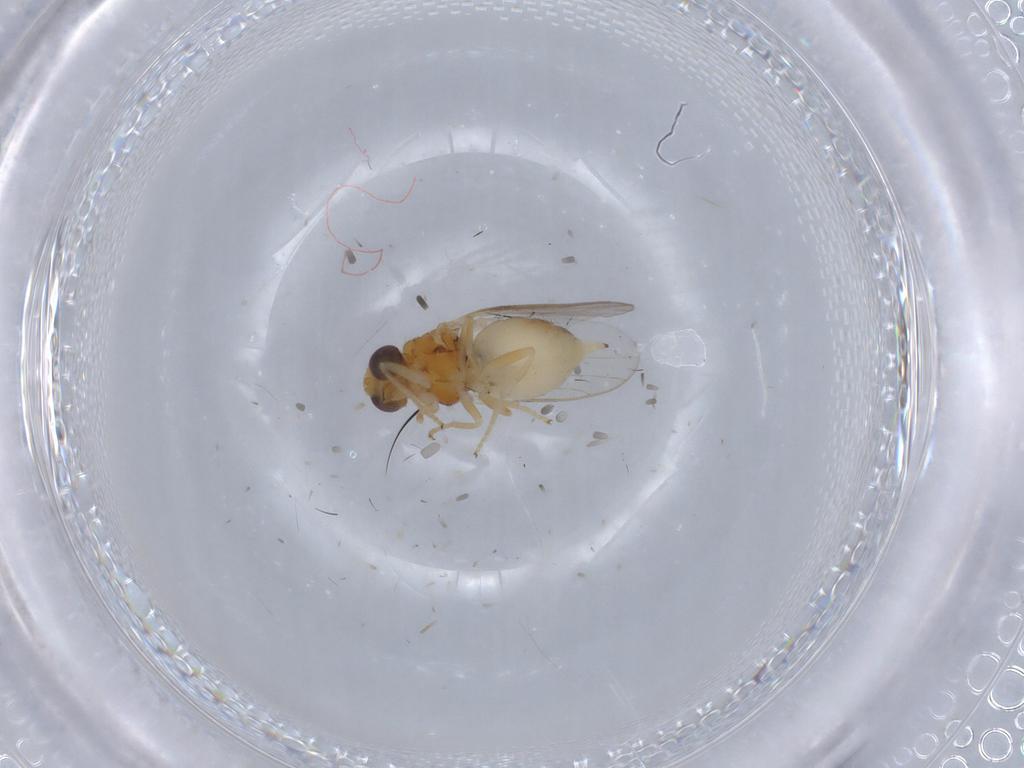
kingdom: Animalia
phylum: Arthropoda
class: Insecta
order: Diptera
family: Chloropidae
